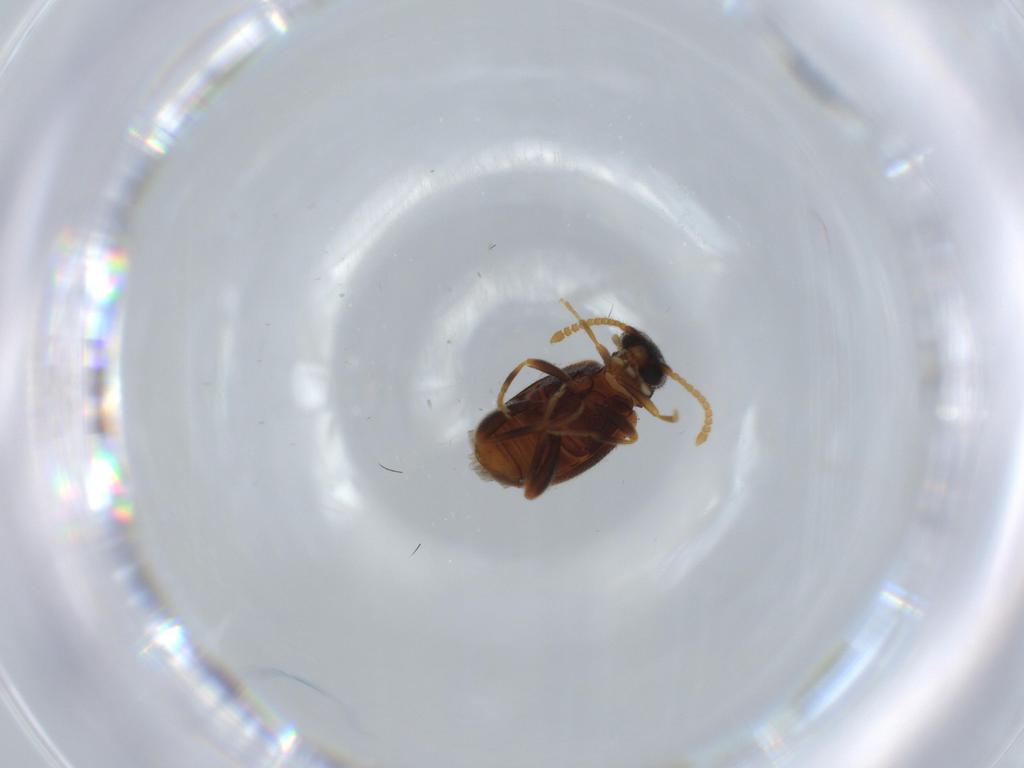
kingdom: Animalia
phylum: Arthropoda
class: Insecta
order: Coleoptera
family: Aderidae
